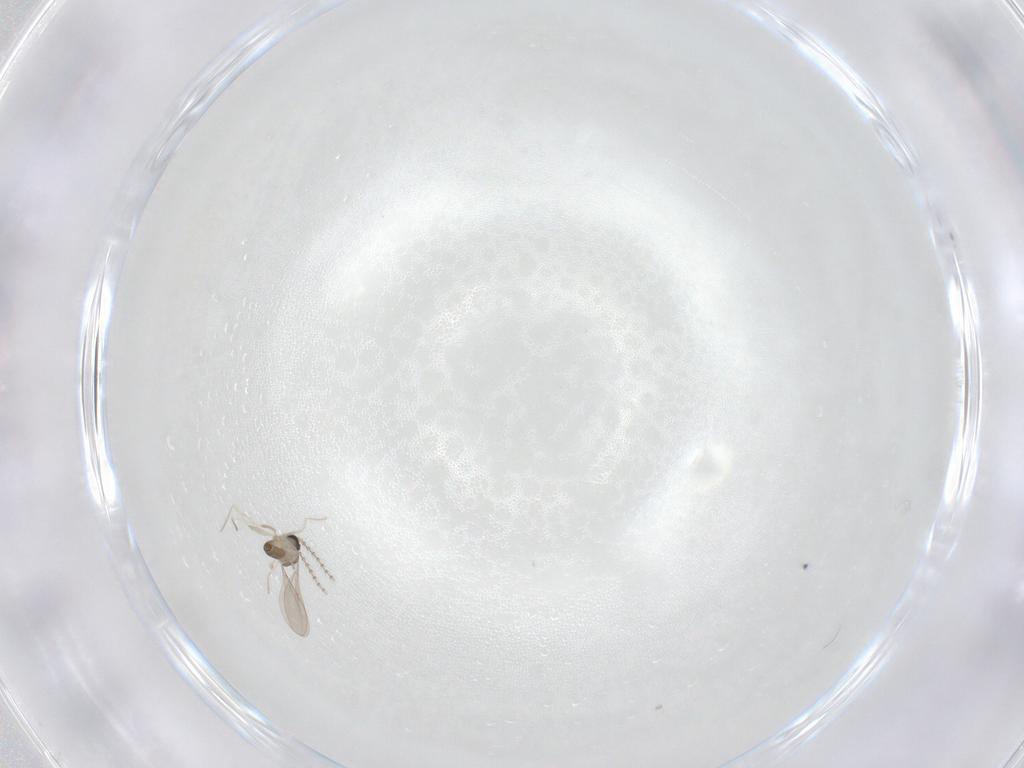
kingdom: Animalia
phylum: Arthropoda
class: Insecta
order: Diptera
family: Cecidomyiidae
